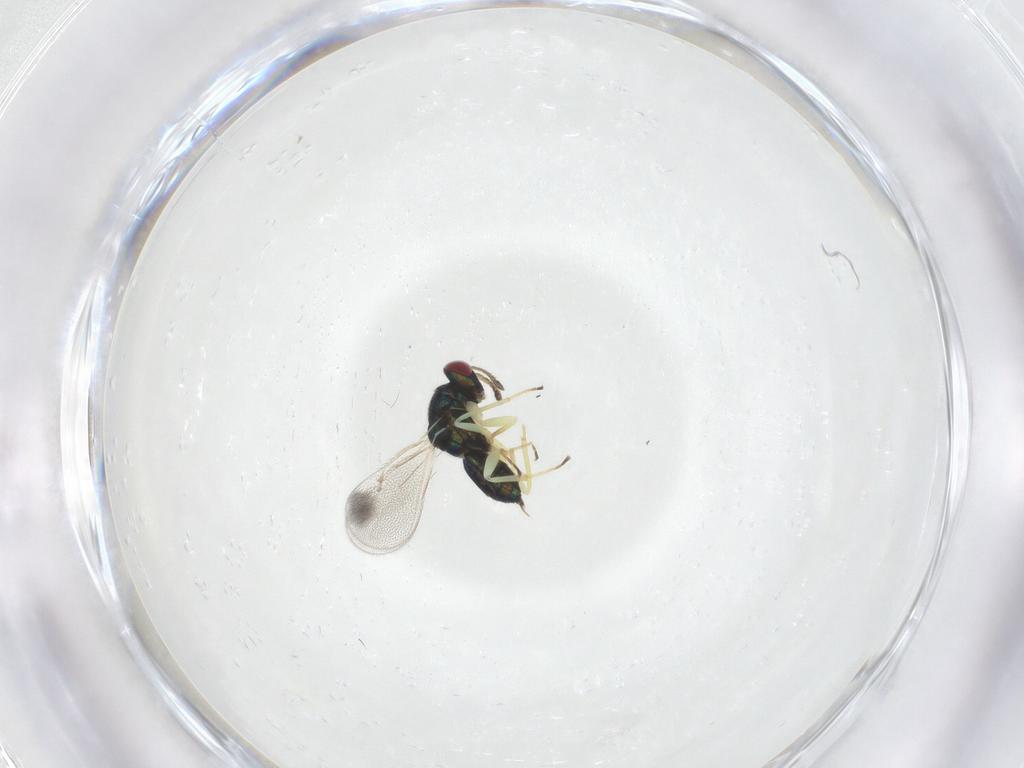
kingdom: Animalia
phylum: Arthropoda
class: Insecta
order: Hymenoptera
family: Eulophidae
